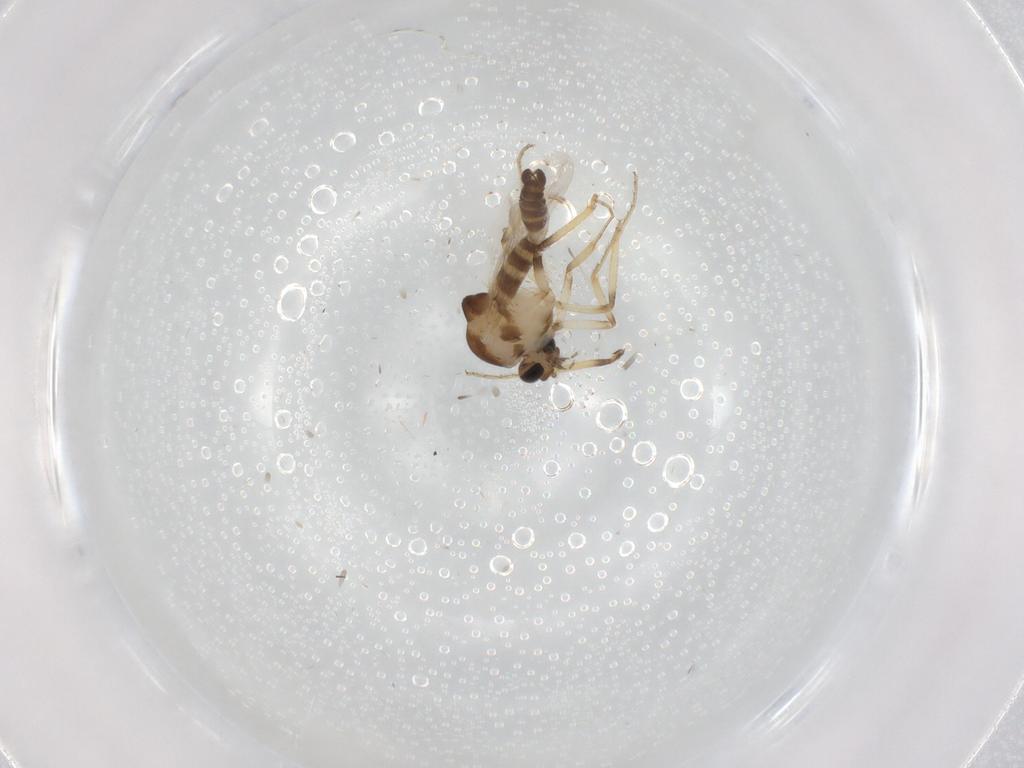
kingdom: Animalia
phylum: Arthropoda
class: Insecta
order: Diptera
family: Ceratopogonidae
